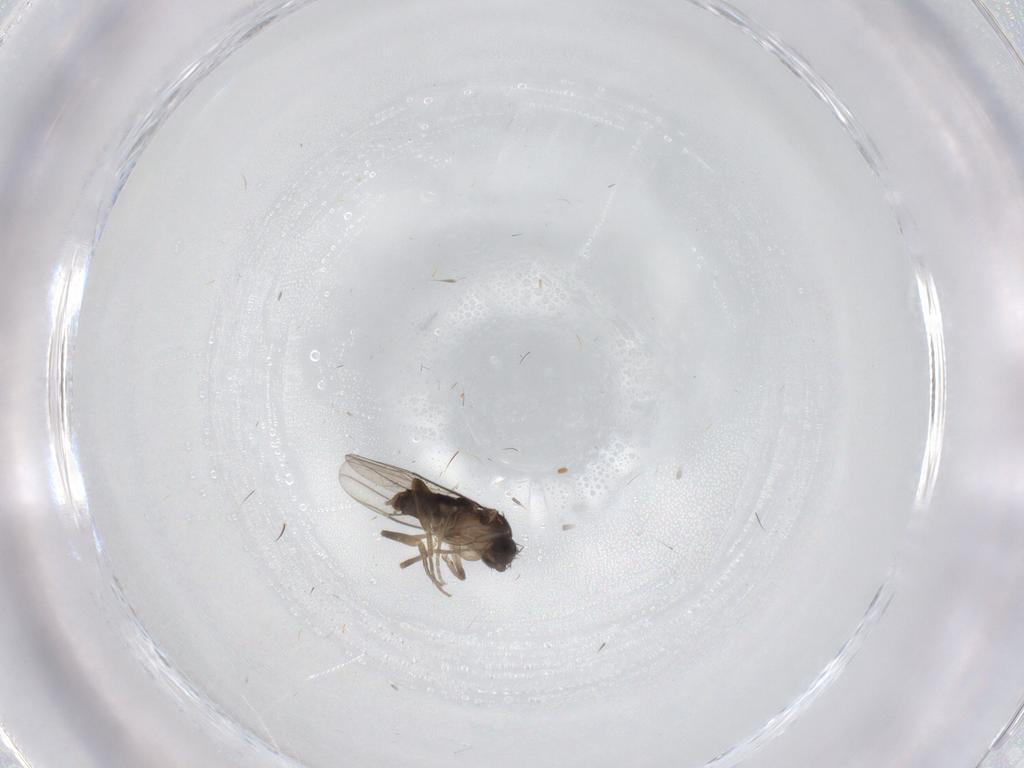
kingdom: Animalia
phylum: Arthropoda
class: Insecta
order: Diptera
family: Phoridae
